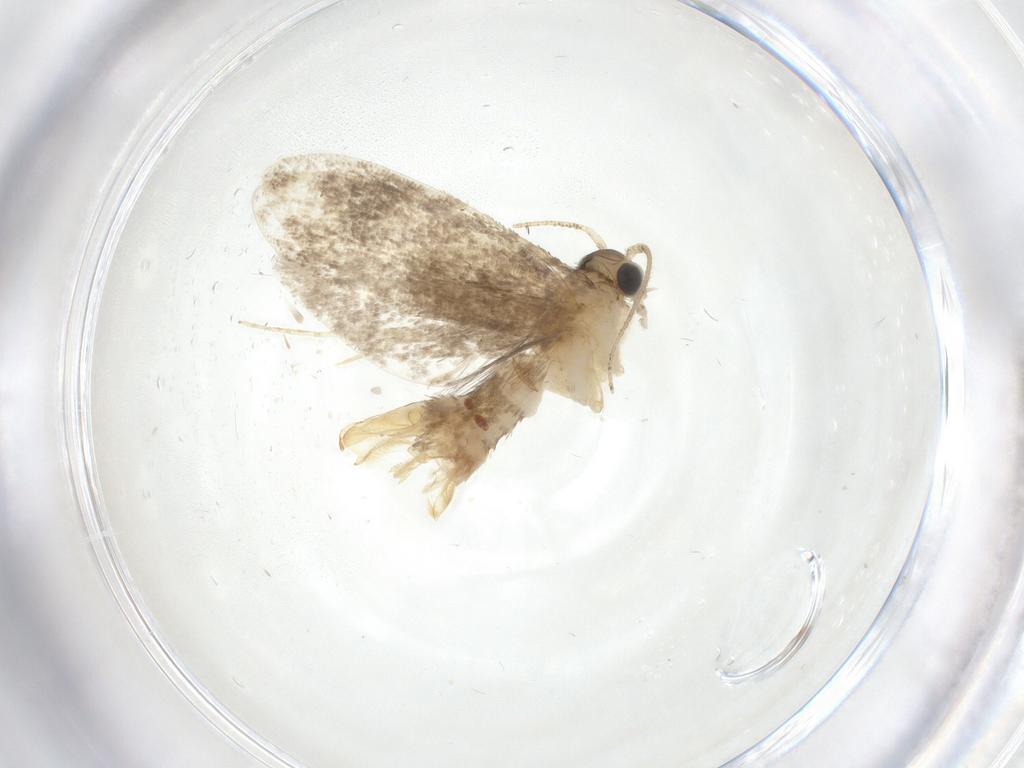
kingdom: Animalia
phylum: Arthropoda
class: Insecta
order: Lepidoptera
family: Tineidae
